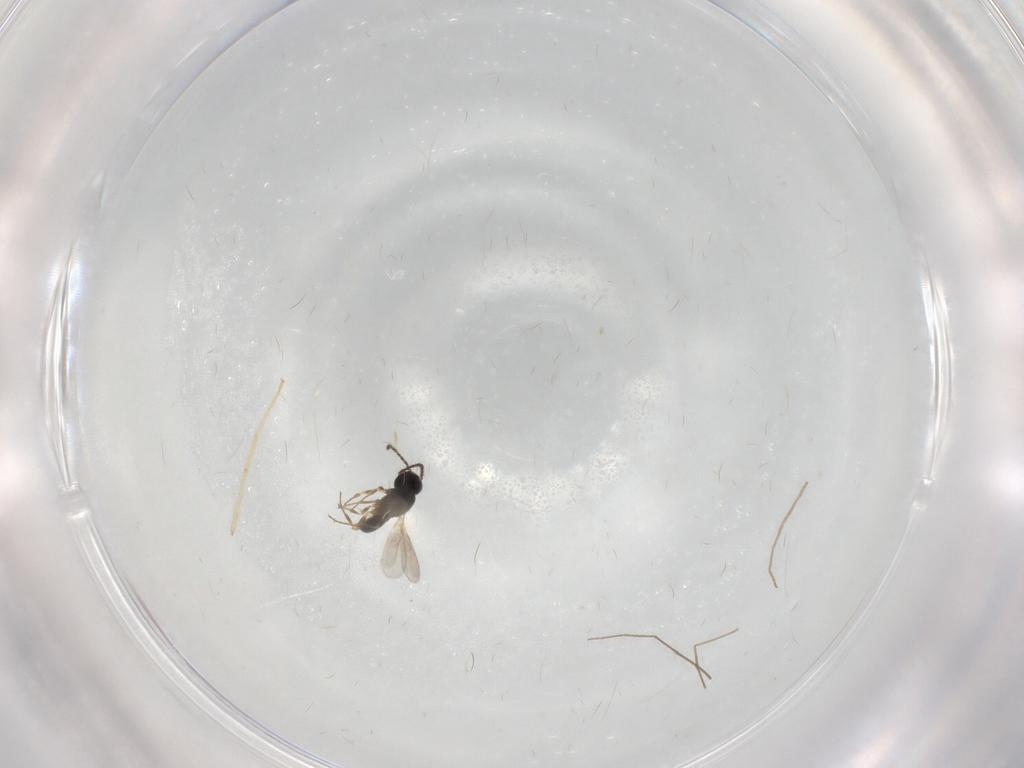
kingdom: Animalia
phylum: Arthropoda
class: Insecta
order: Hymenoptera
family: Scelionidae
